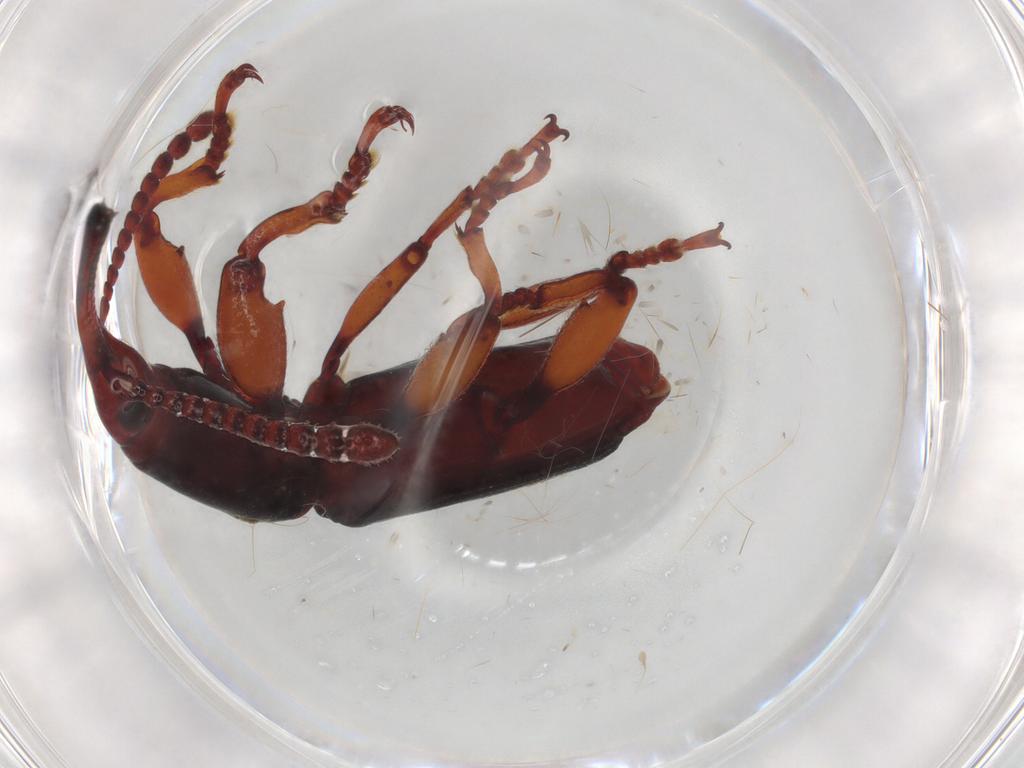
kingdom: Animalia
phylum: Arthropoda
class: Insecta
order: Coleoptera
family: Brentidae
